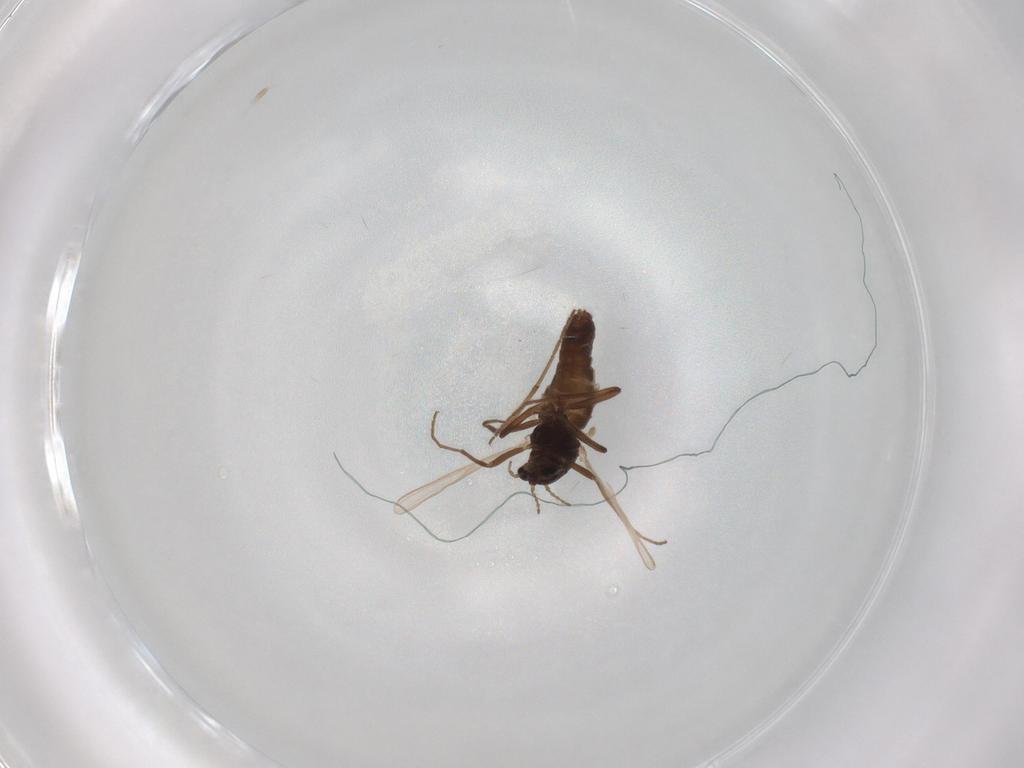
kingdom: Animalia
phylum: Arthropoda
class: Insecta
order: Diptera
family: Chironomidae
